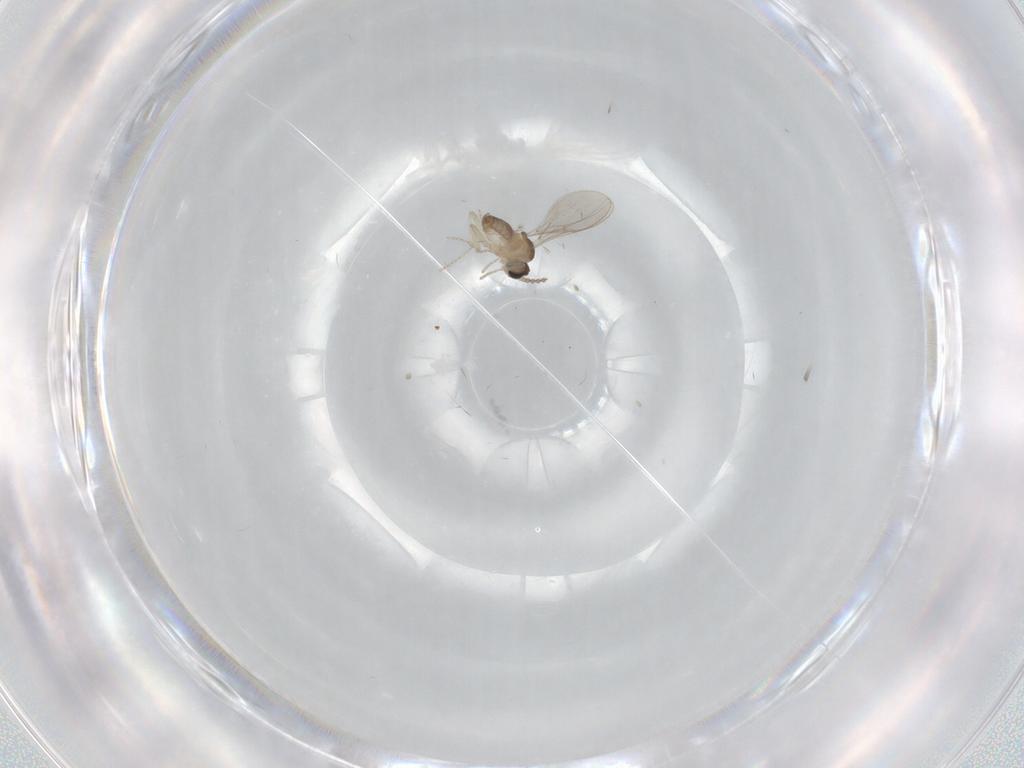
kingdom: Animalia
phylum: Arthropoda
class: Insecta
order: Diptera
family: Cecidomyiidae
